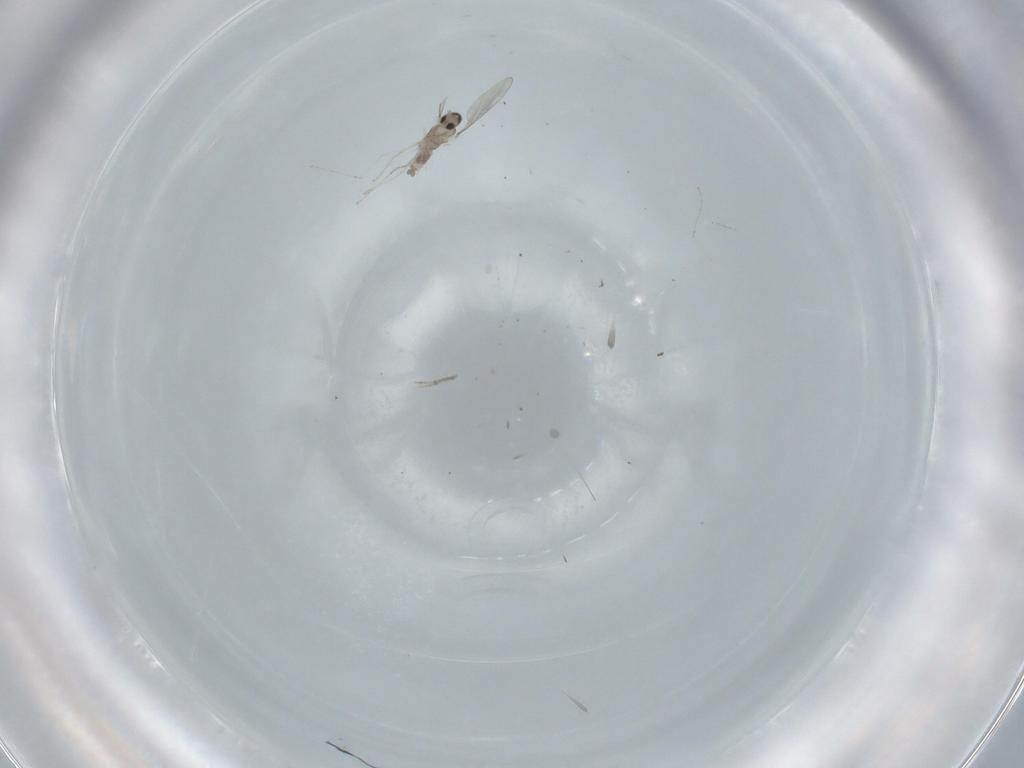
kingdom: Animalia
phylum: Arthropoda
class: Insecta
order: Diptera
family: Cecidomyiidae
